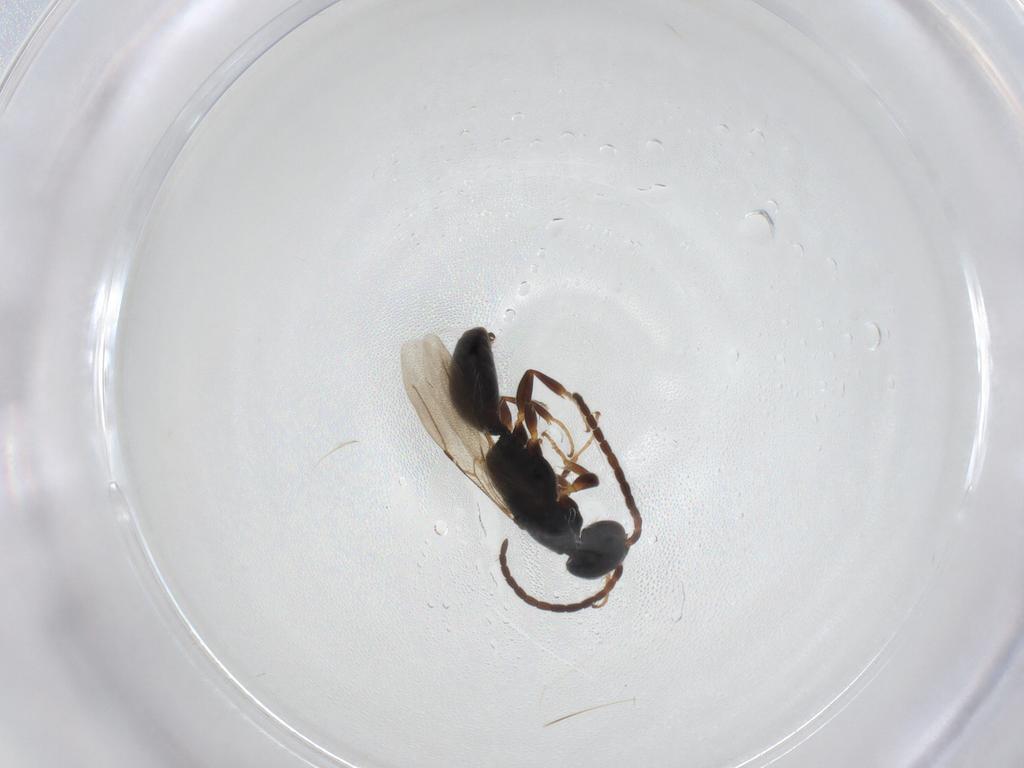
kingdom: Animalia
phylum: Arthropoda
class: Insecta
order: Hymenoptera
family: Bethylidae
